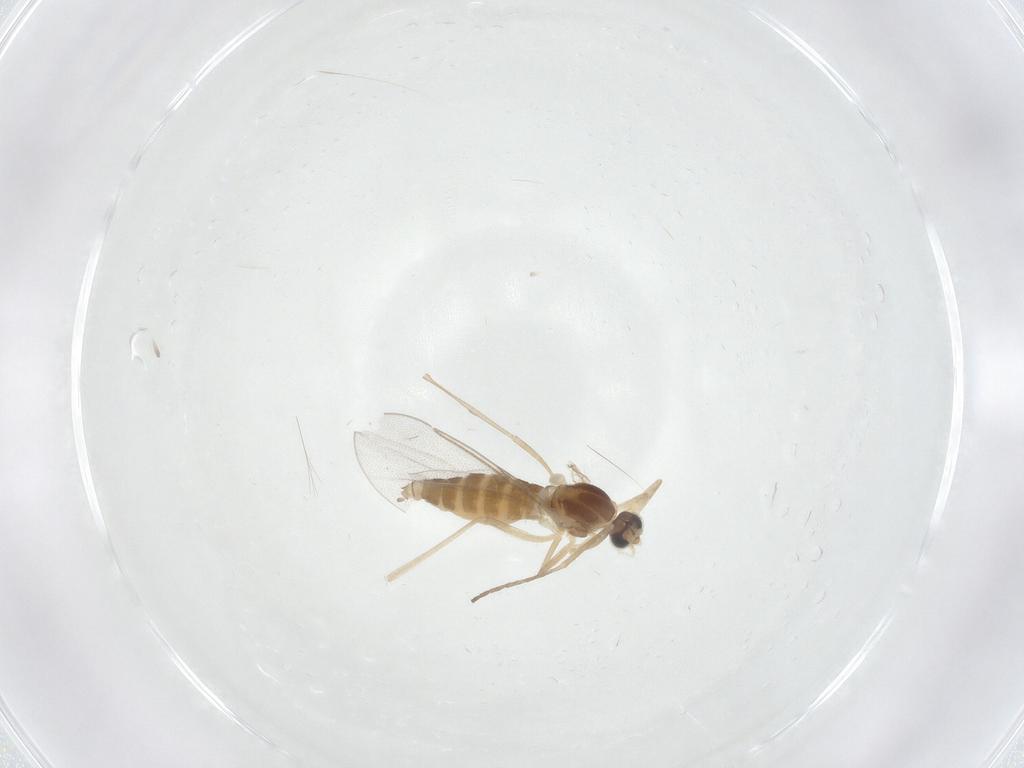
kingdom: Animalia
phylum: Arthropoda
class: Insecta
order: Diptera
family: Cecidomyiidae
